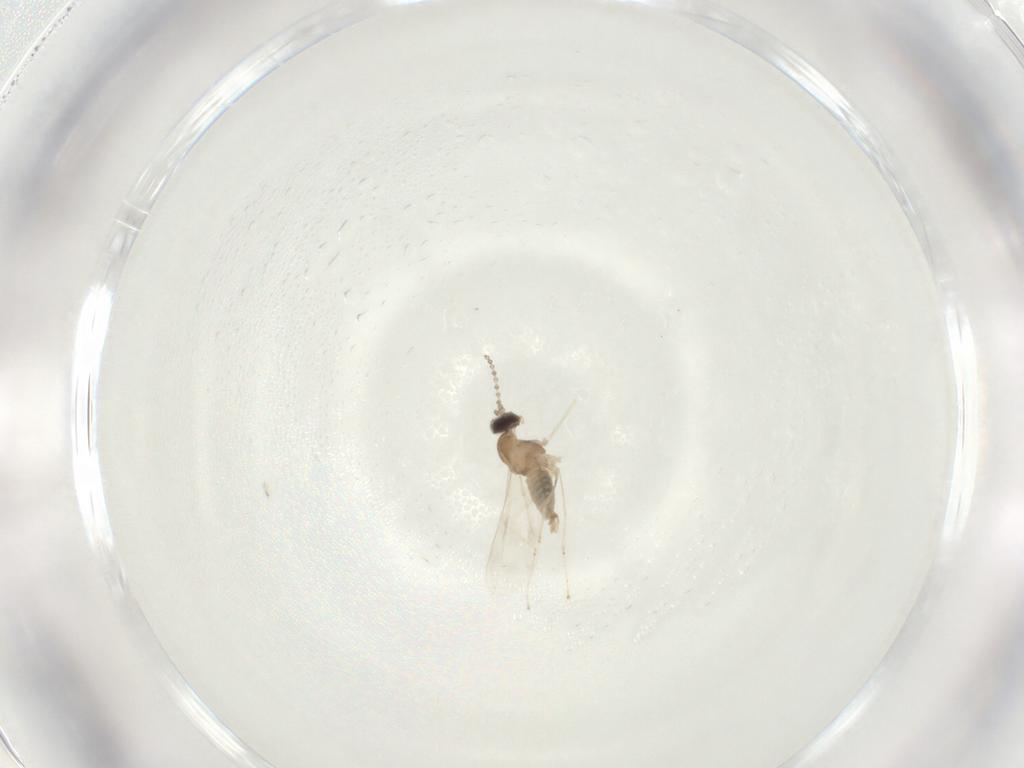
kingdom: Animalia
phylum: Arthropoda
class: Insecta
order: Diptera
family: Cecidomyiidae
